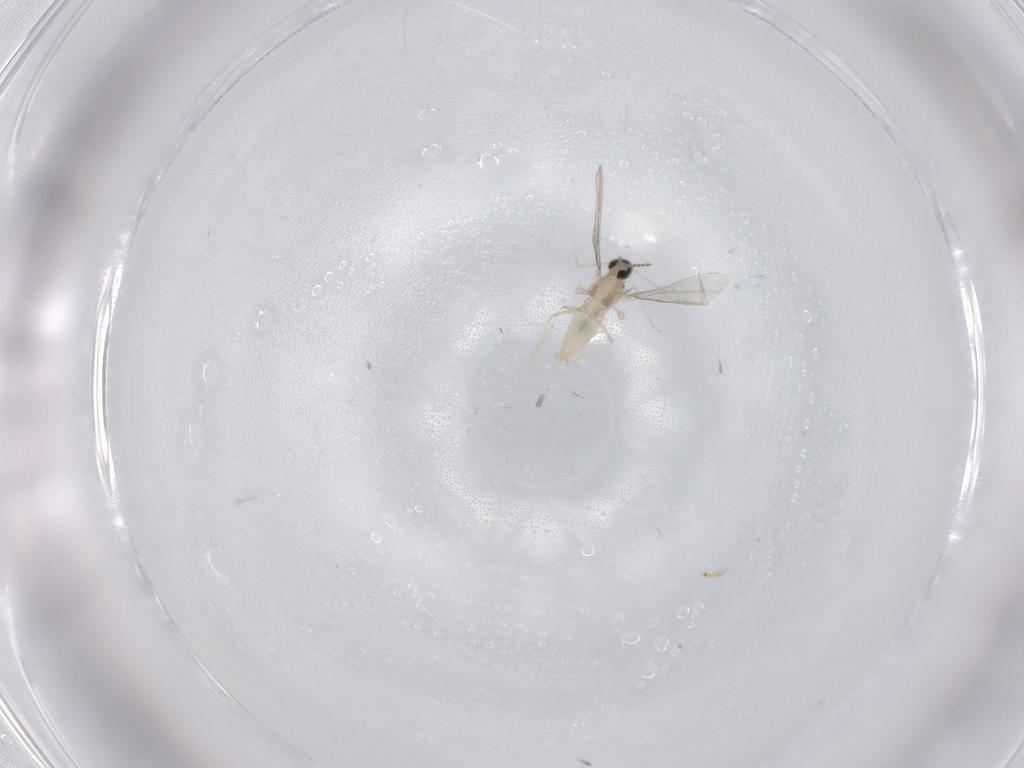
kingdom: Animalia
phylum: Arthropoda
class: Insecta
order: Diptera
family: Cecidomyiidae
